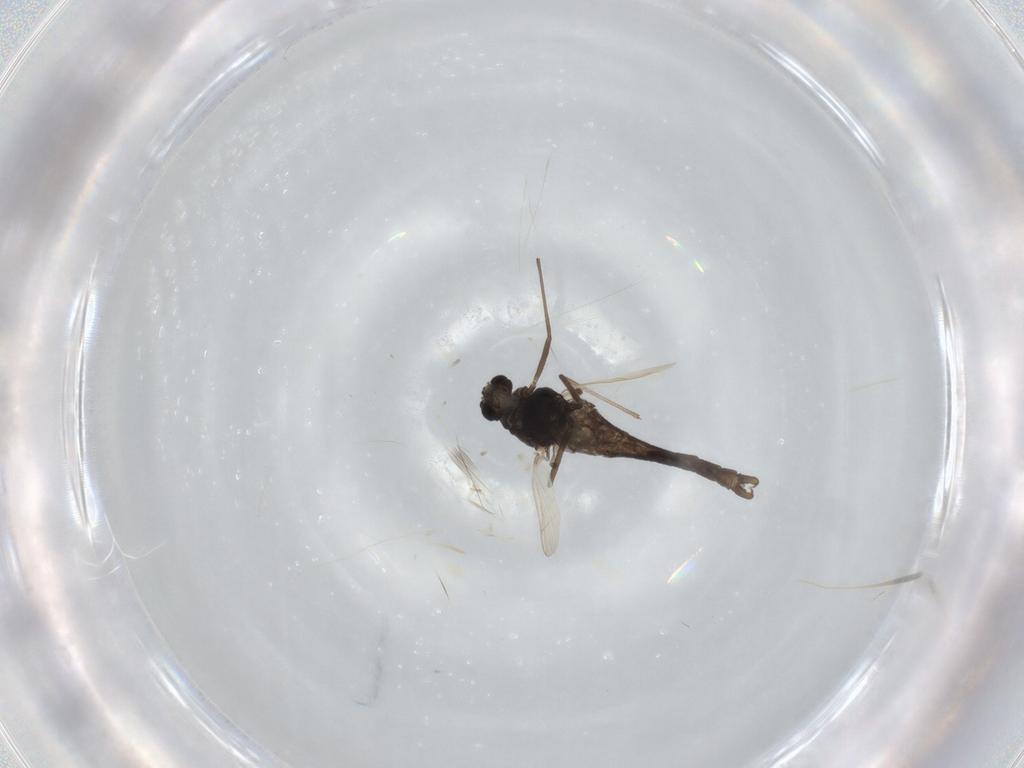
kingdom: Animalia
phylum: Arthropoda
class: Insecta
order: Diptera
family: Chironomidae
